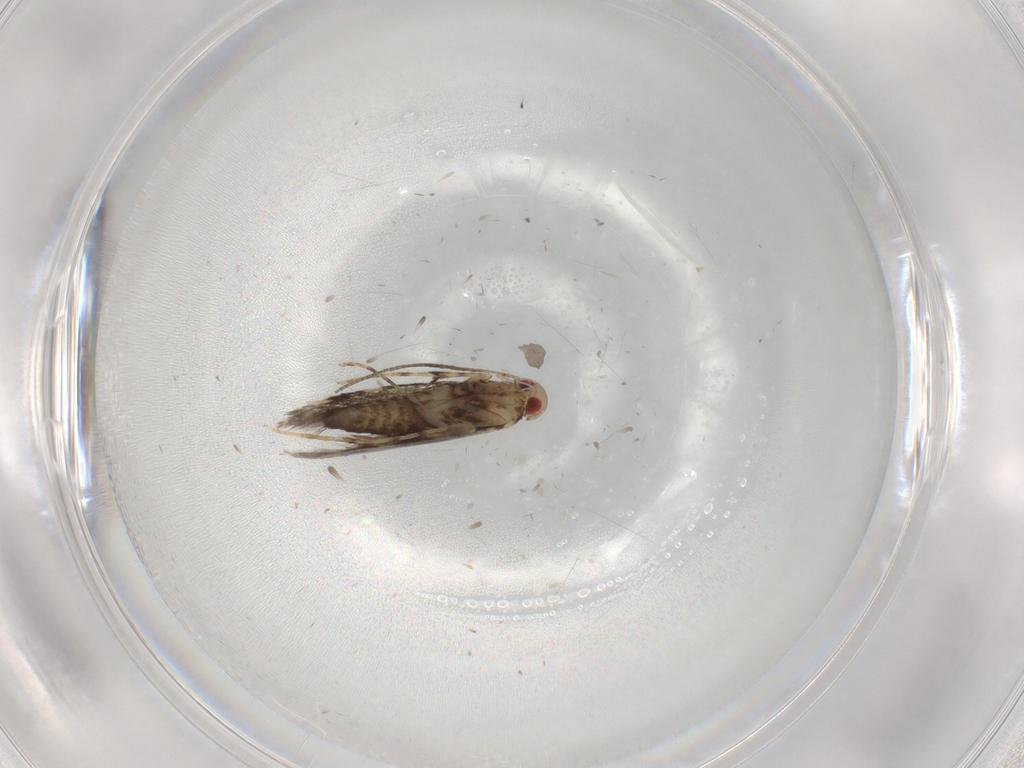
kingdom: Animalia
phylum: Arthropoda
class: Insecta
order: Lepidoptera
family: Gracillariidae
